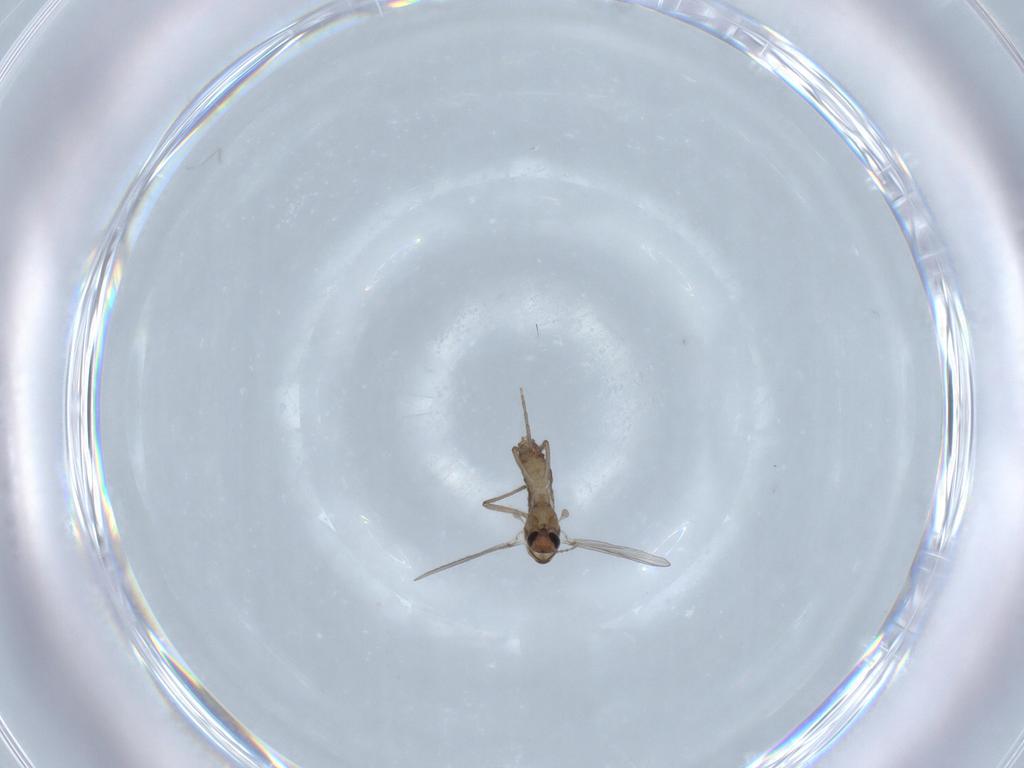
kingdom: Animalia
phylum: Arthropoda
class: Insecta
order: Diptera
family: Chironomidae
